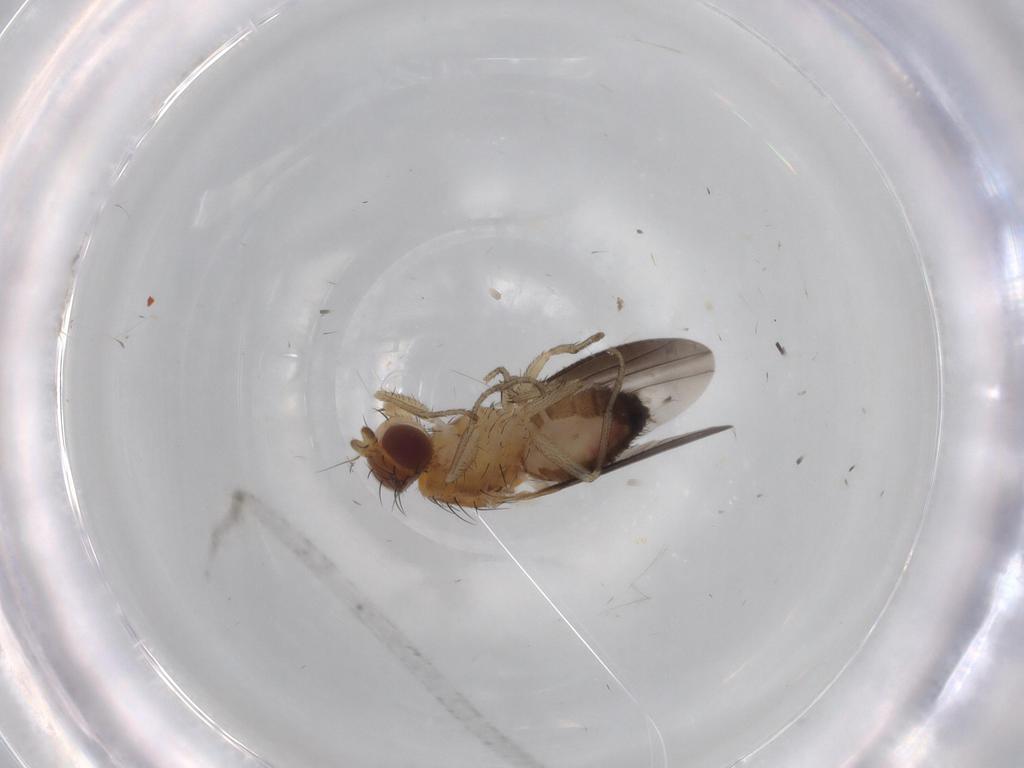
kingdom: Animalia
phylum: Arthropoda
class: Insecta
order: Diptera
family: Heleomyzidae
